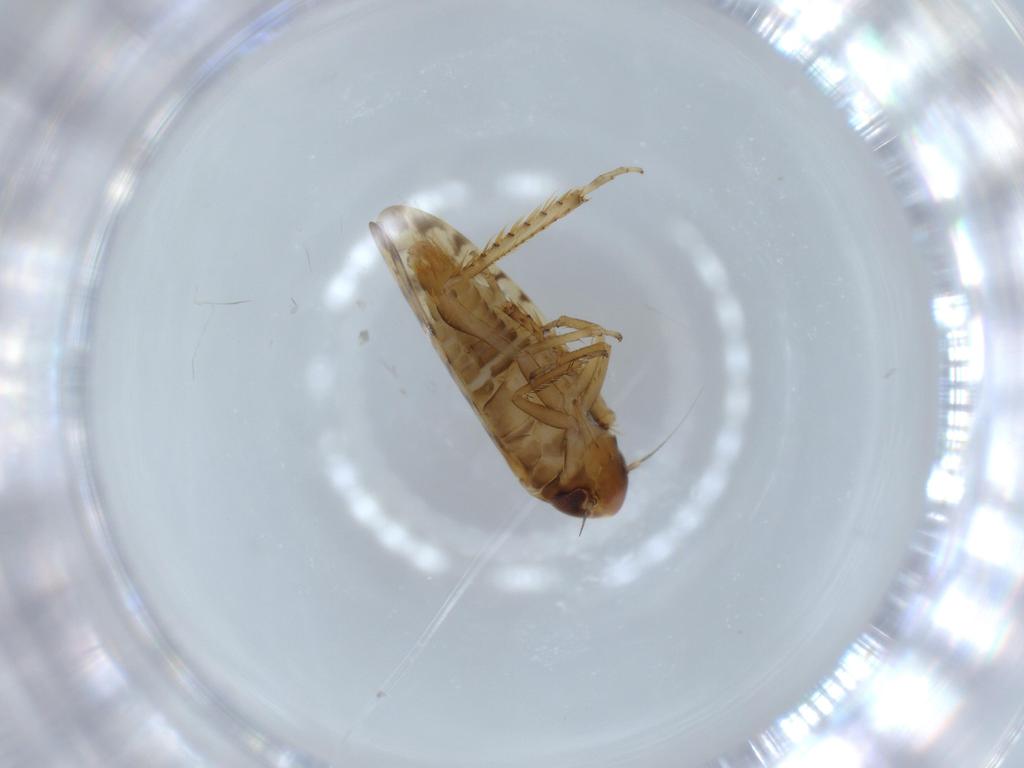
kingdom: Animalia
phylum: Arthropoda
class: Insecta
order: Hemiptera
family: Cicadellidae
